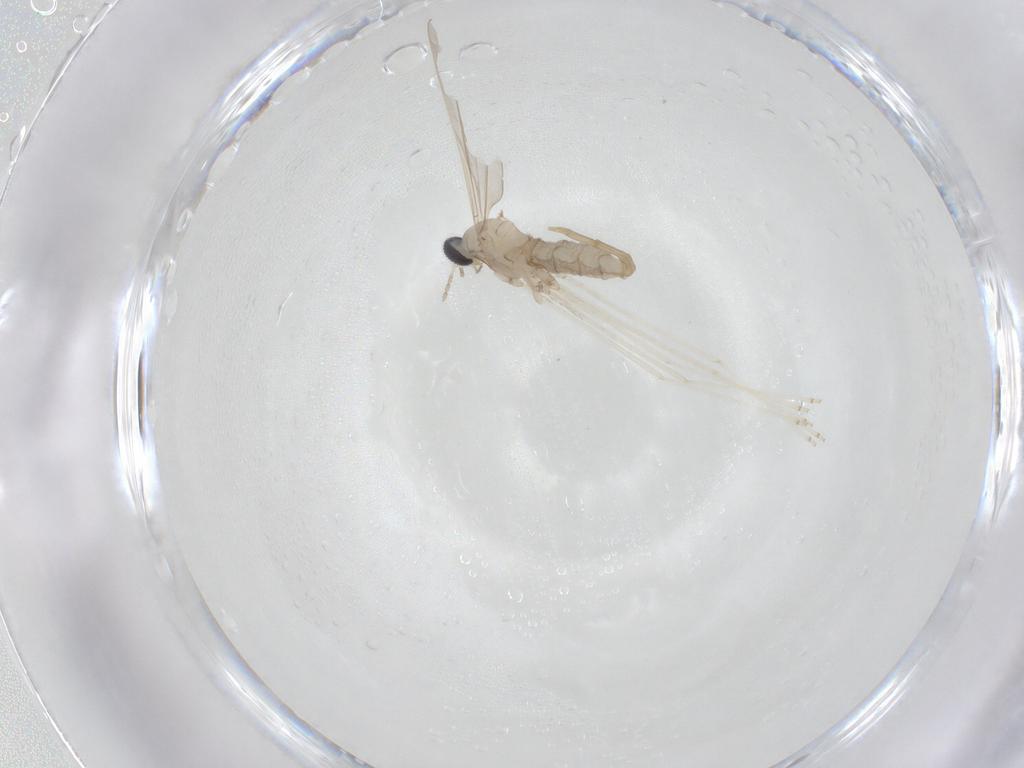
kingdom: Animalia
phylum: Arthropoda
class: Insecta
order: Diptera
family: Cecidomyiidae
